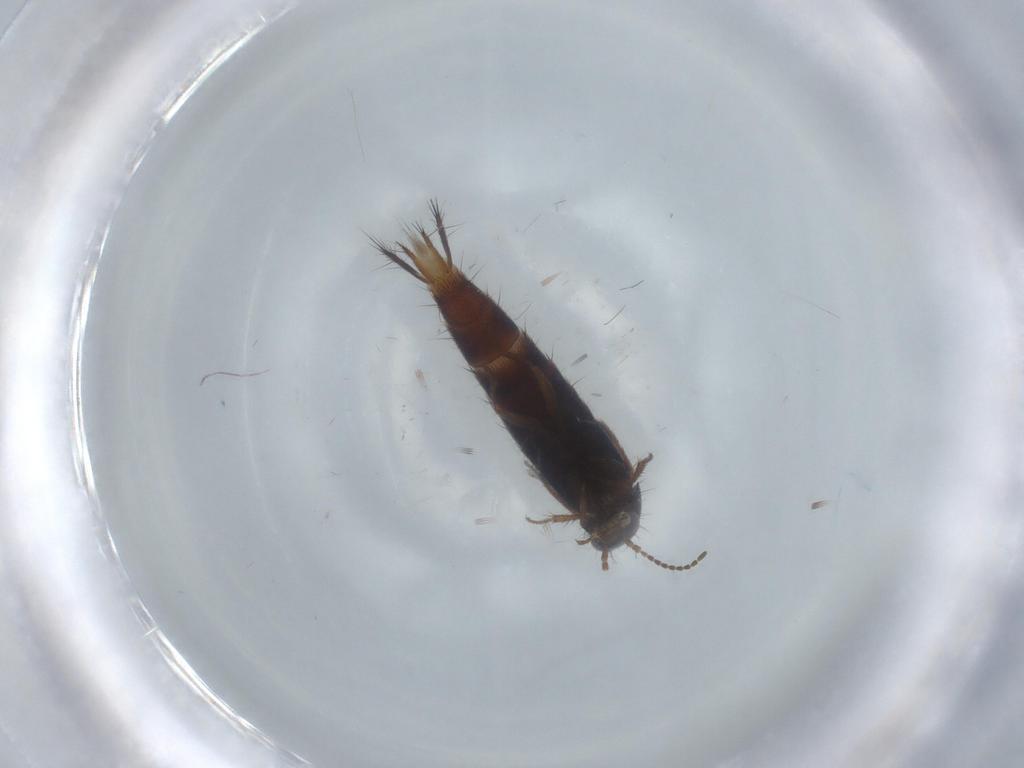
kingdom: Animalia
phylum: Arthropoda
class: Insecta
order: Coleoptera
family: Staphylinidae
